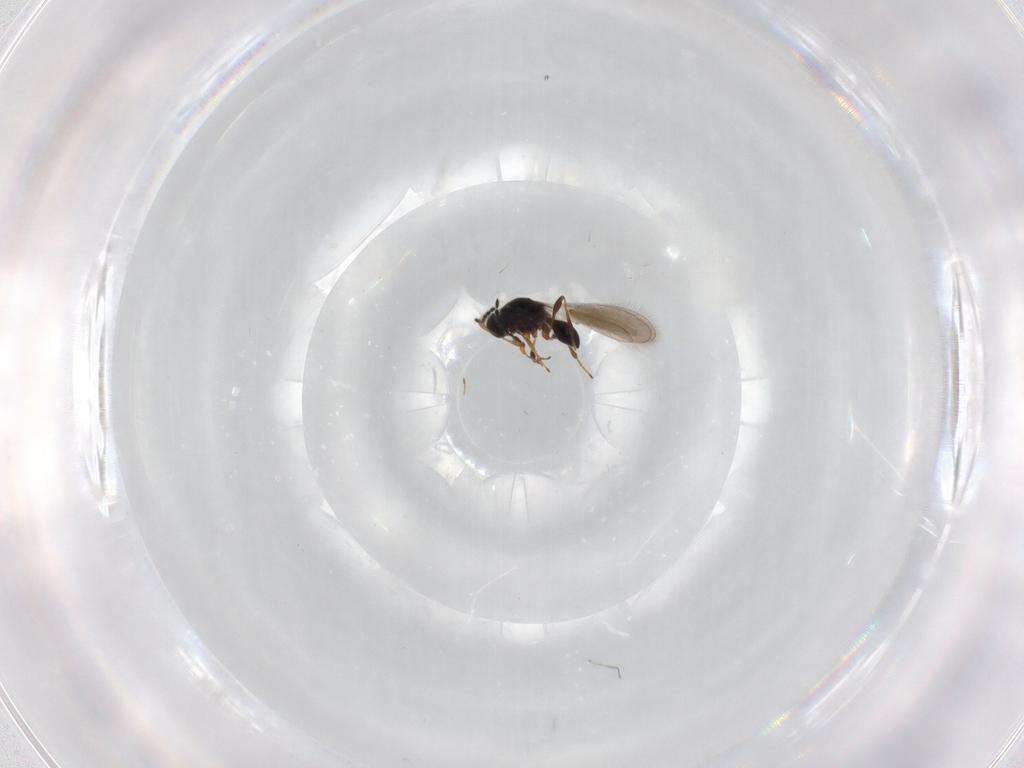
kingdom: Animalia
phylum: Arthropoda
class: Insecta
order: Hymenoptera
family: Platygastridae
